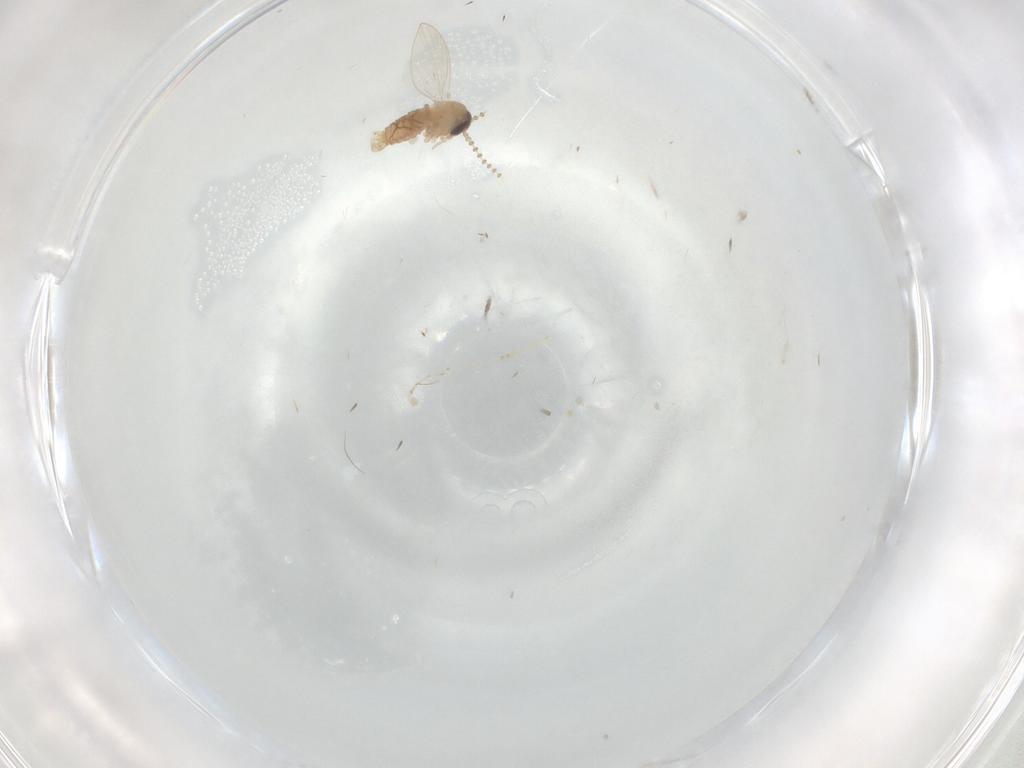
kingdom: Animalia
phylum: Arthropoda
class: Insecta
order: Diptera
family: Psychodidae
